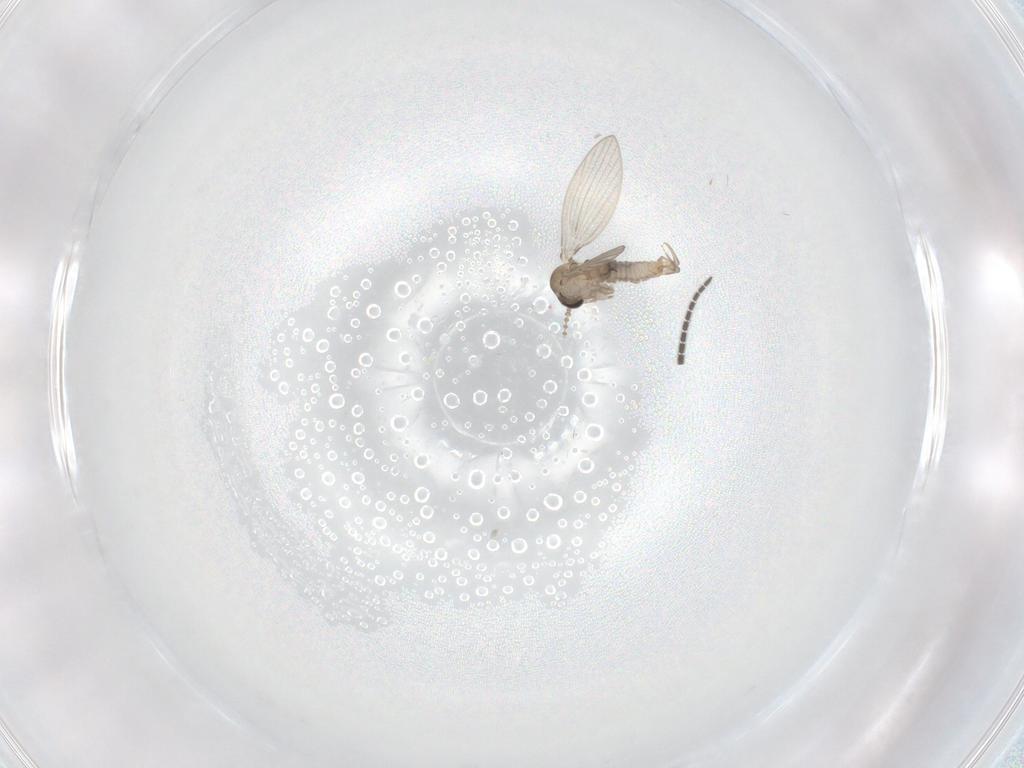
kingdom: Animalia
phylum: Arthropoda
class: Insecta
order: Diptera
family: Psychodidae
